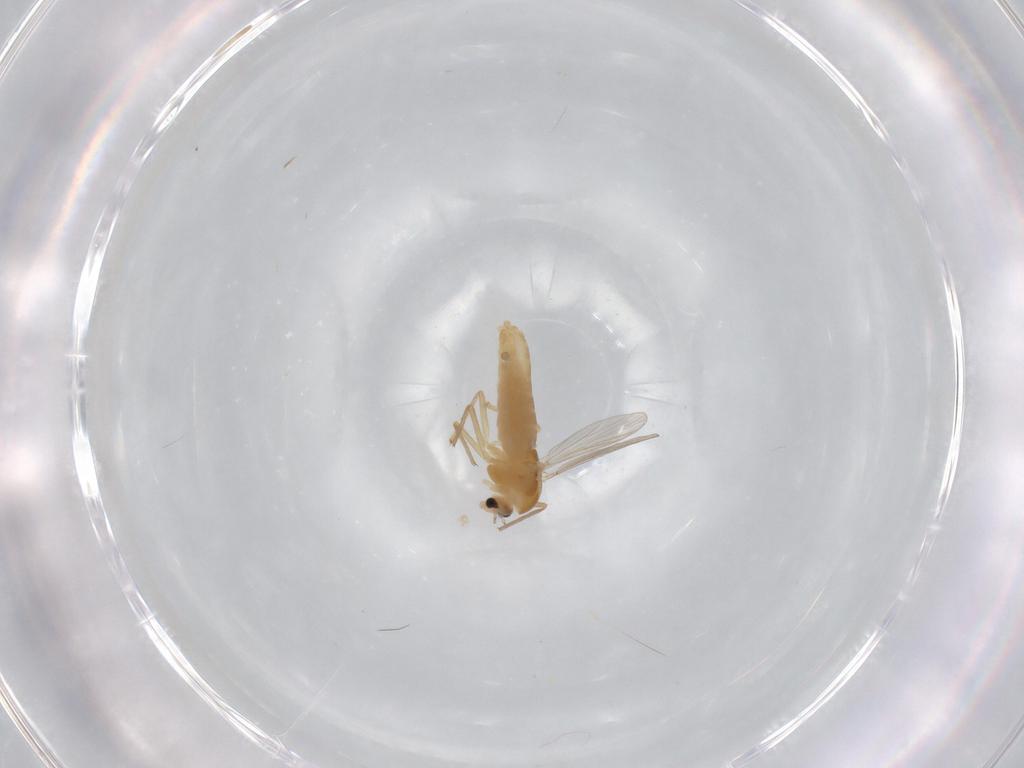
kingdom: Animalia
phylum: Arthropoda
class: Insecta
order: Diptera
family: Chironomidae
